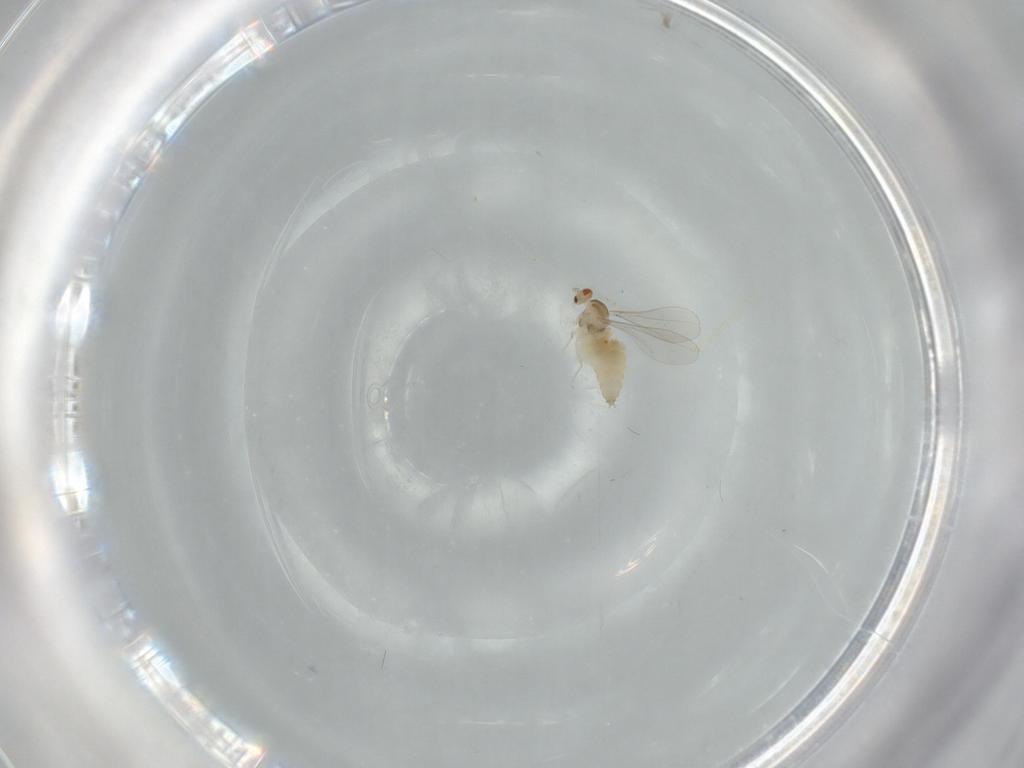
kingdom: Animalia
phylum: Arthropoda
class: Insecta
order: Diptera
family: Cecidomyiidae
